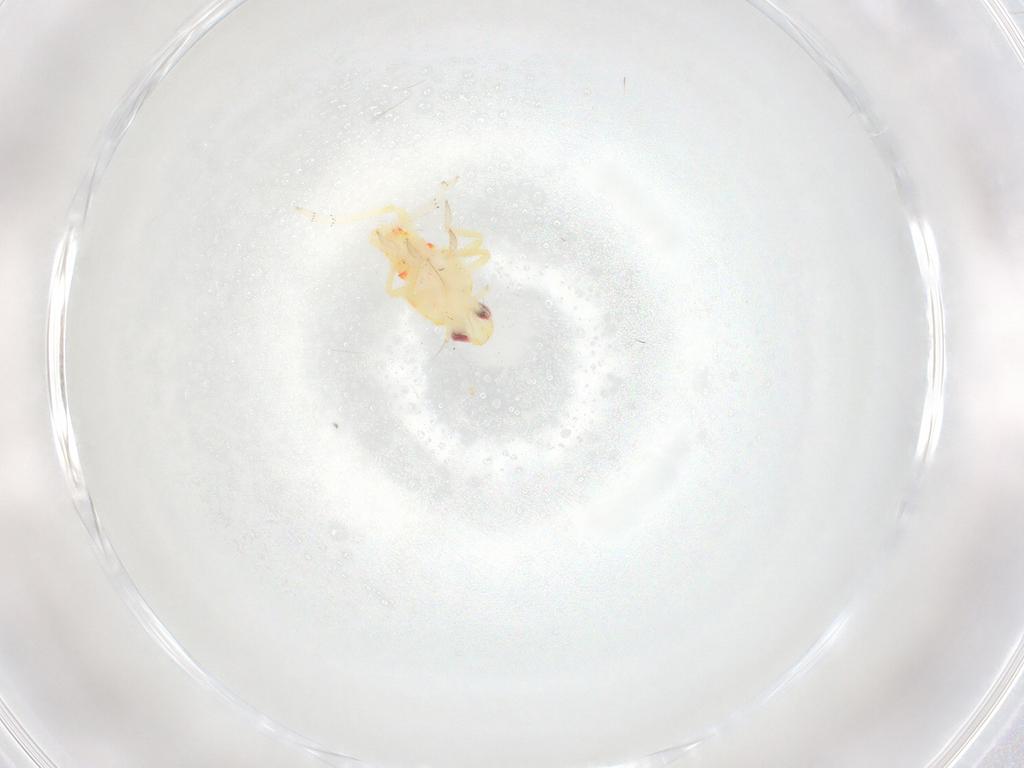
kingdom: Animalia
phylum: Arthropoda
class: Insecta
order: Hemiptera
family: Tropiduchidae
